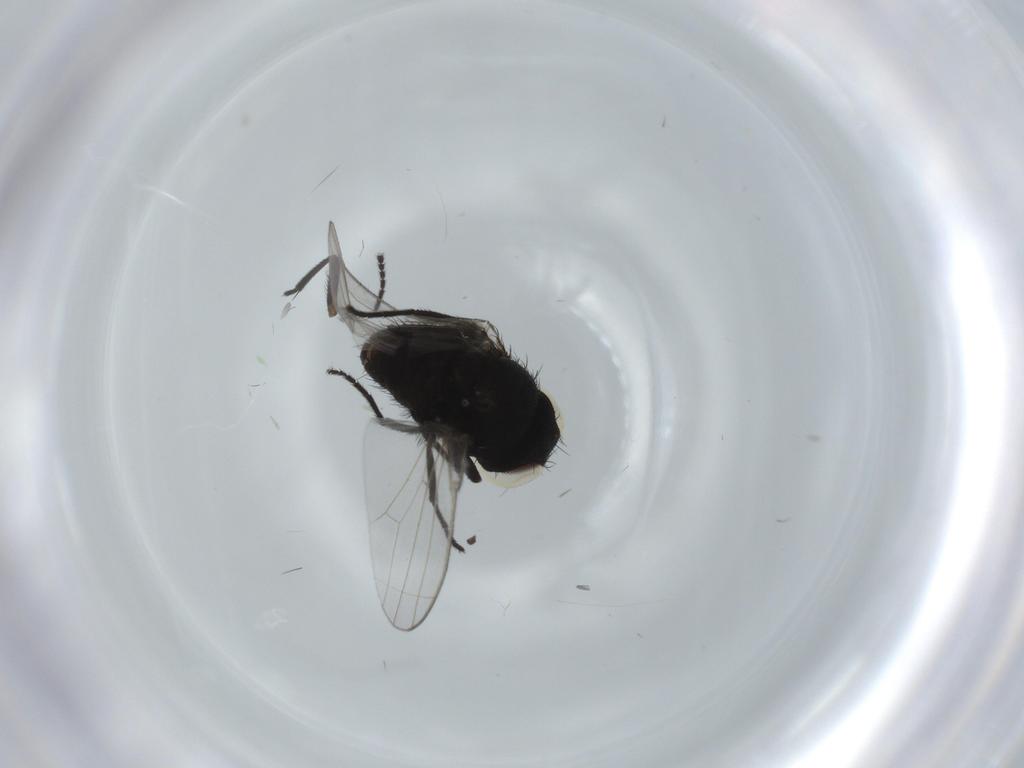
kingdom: Animalia
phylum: Arthropoda
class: Insecta
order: Diptera
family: Milichiidae
